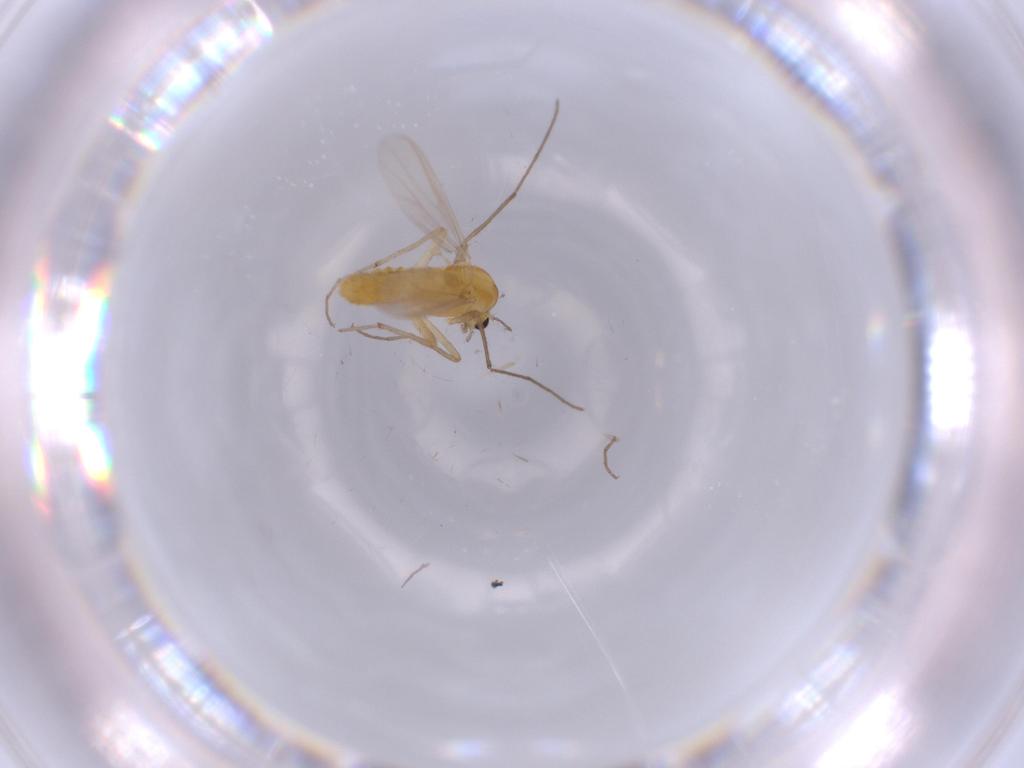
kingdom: Animalia
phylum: Arthropoda
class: Insecta
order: Diptera
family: Chironomidae
